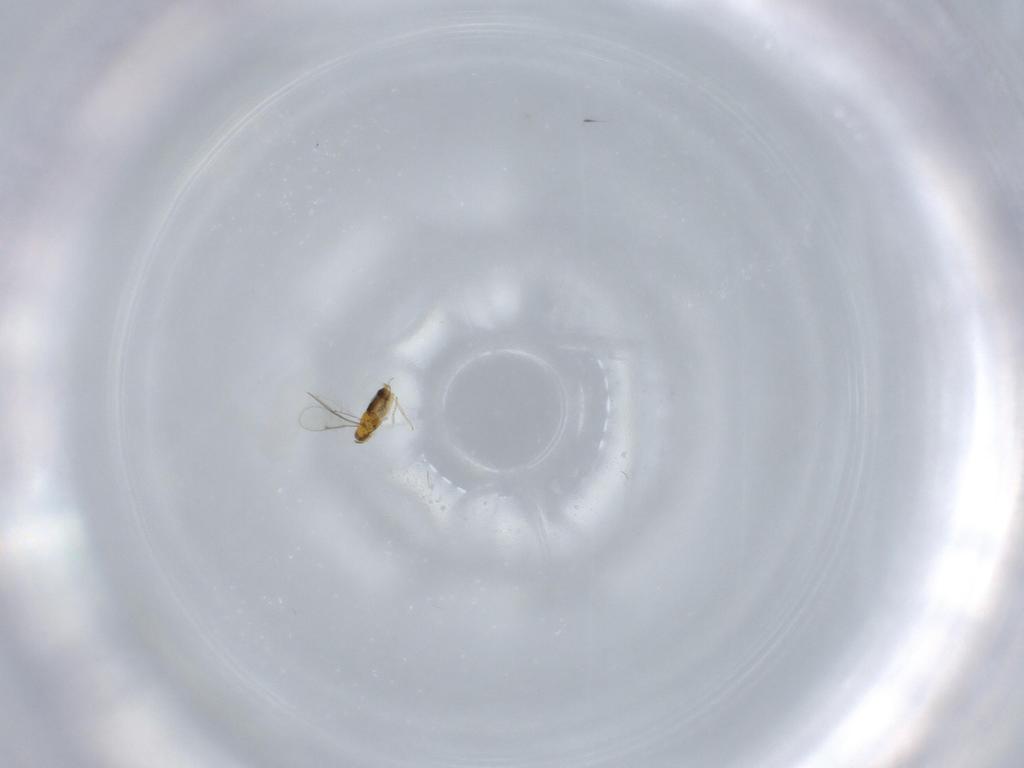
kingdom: Animalia
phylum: Arthropoda
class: Insecta
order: Hymenoptera
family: Aphelinidae
